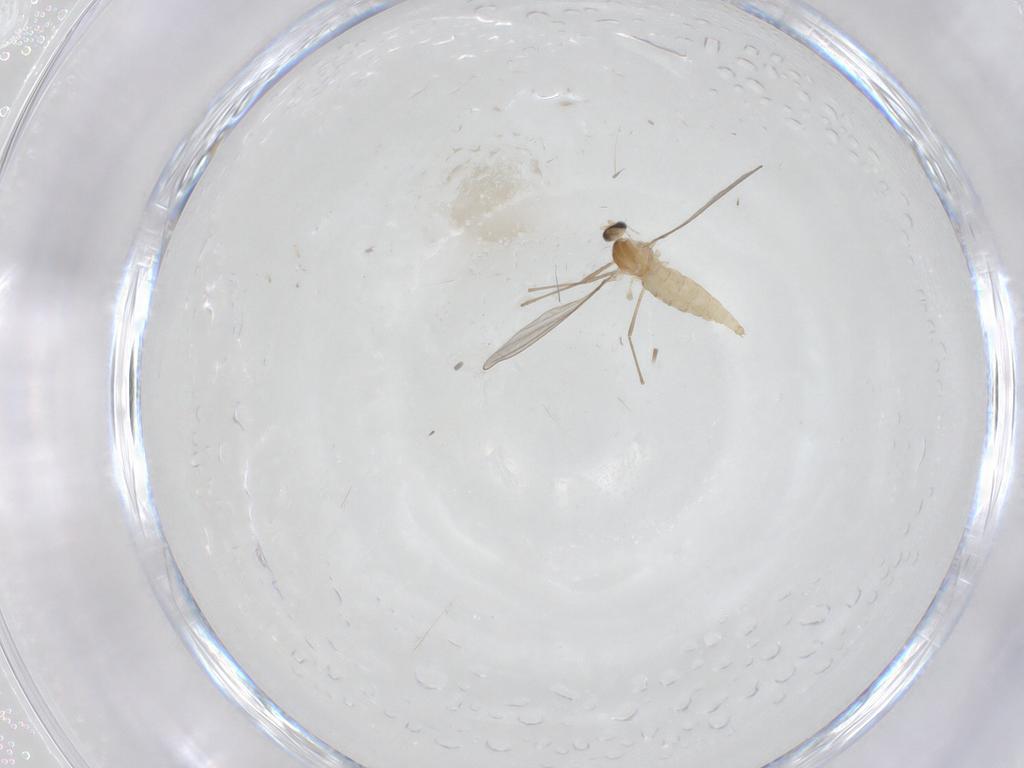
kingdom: Animalia
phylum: Arthropoda
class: Insecta
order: Diptera
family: Cecidomyiidae
